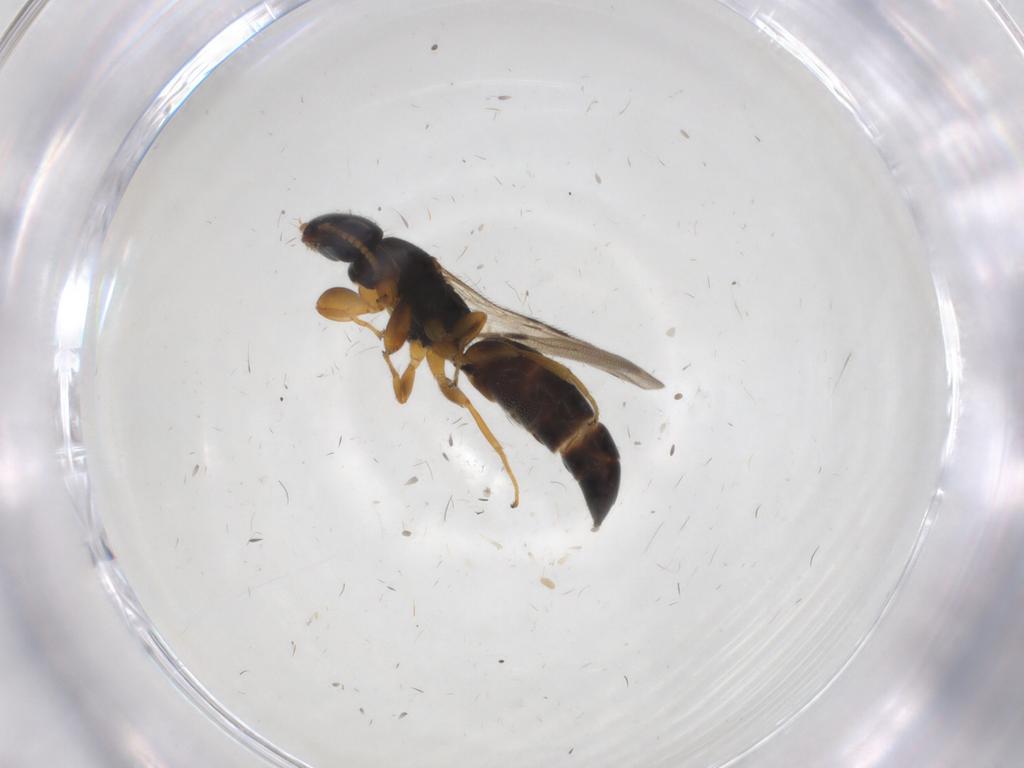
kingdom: Animalia
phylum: Arthropoda
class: Insecta
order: Hymenoptera
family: Bethylidae
